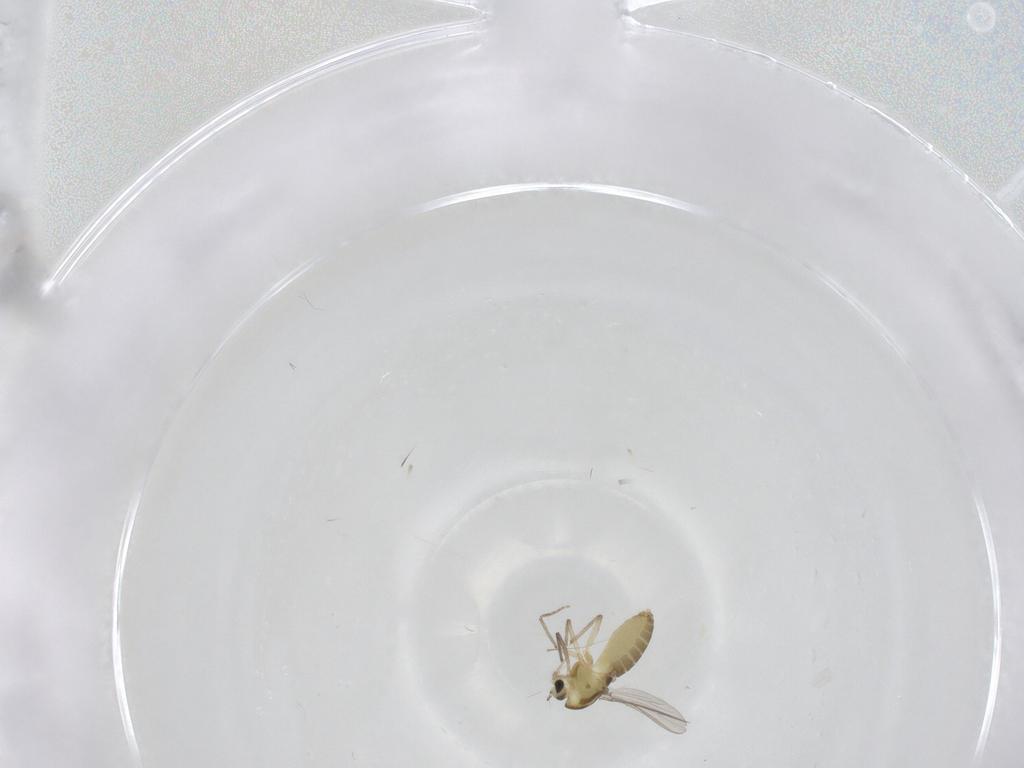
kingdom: Animalia
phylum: Arthropoda
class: Insecta
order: Diptera
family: Chironomidae
